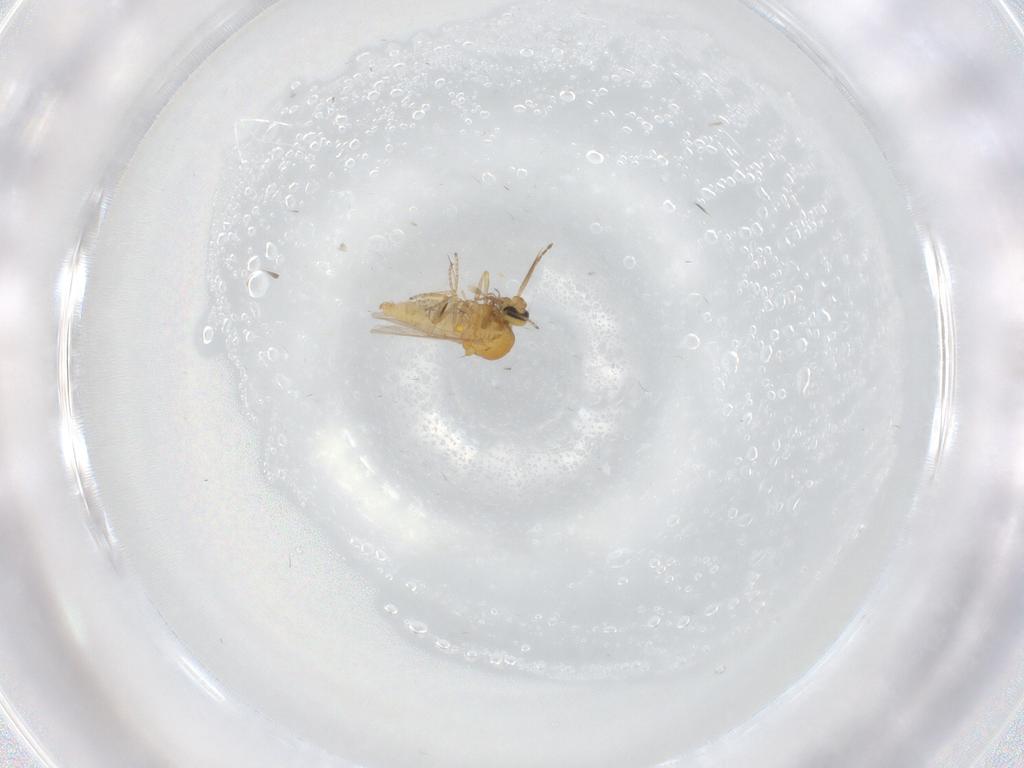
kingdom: Animalia
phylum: Arthropoda
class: Insecta
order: Diptera
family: Ceratopogonidae
